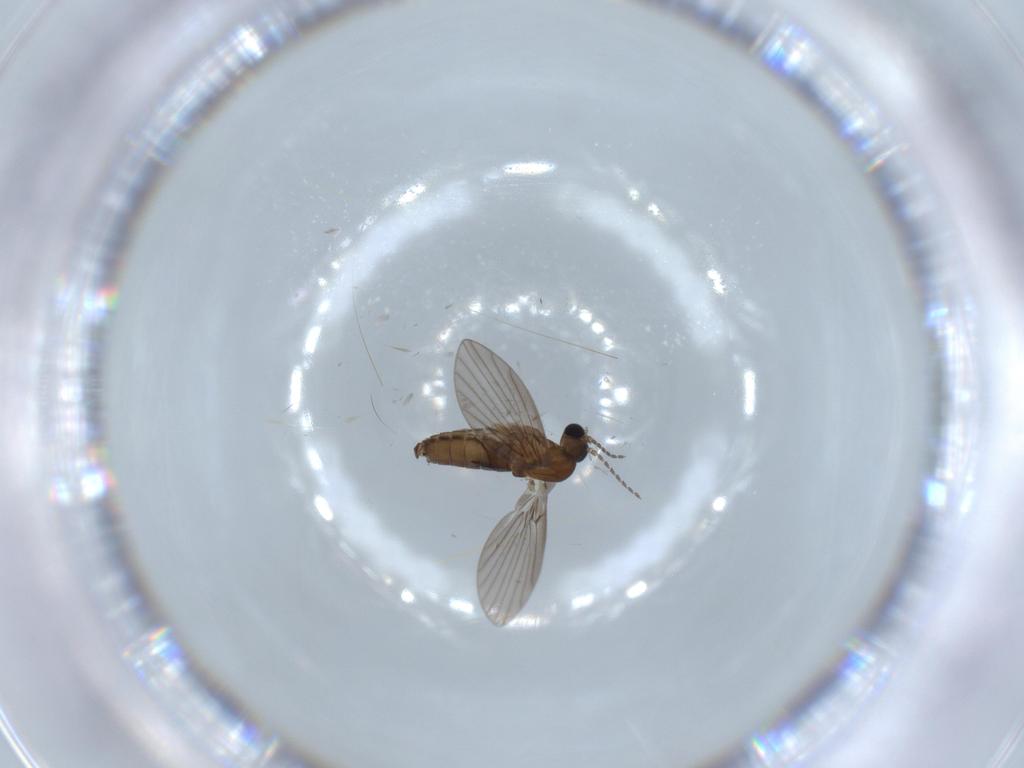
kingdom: Animalia
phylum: Arthropoda
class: Insecta
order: Diptera
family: Psychodidae
